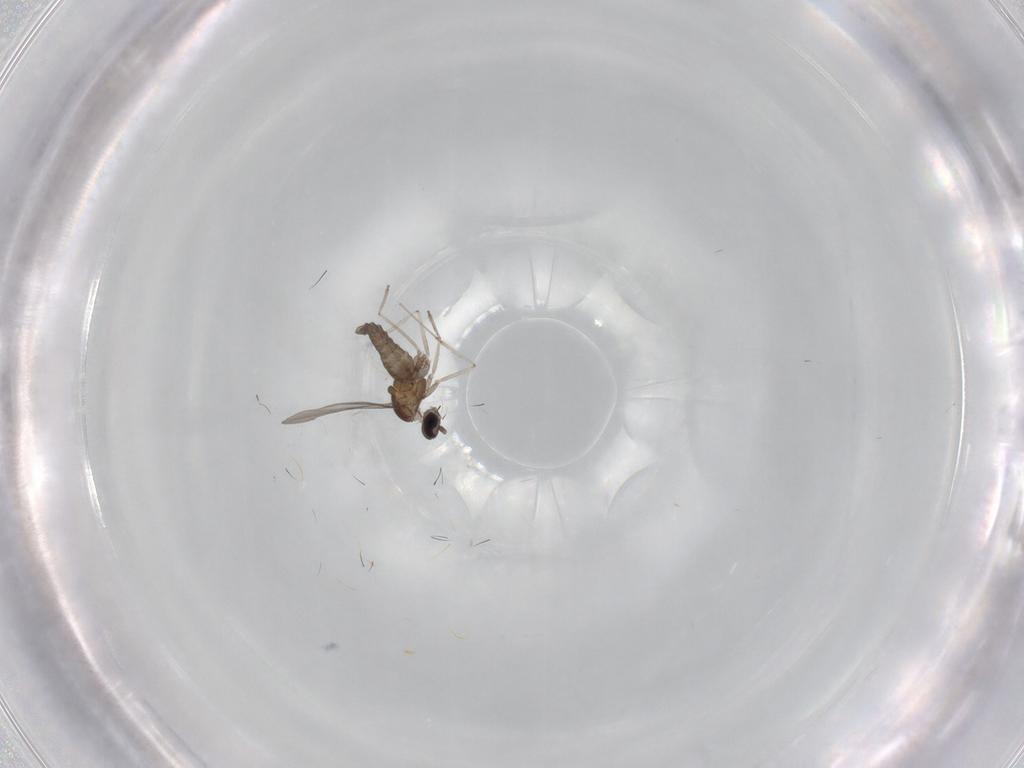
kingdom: Animalia
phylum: Arthropoda
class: Insecta
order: Diptera
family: Cecidomyiidae
